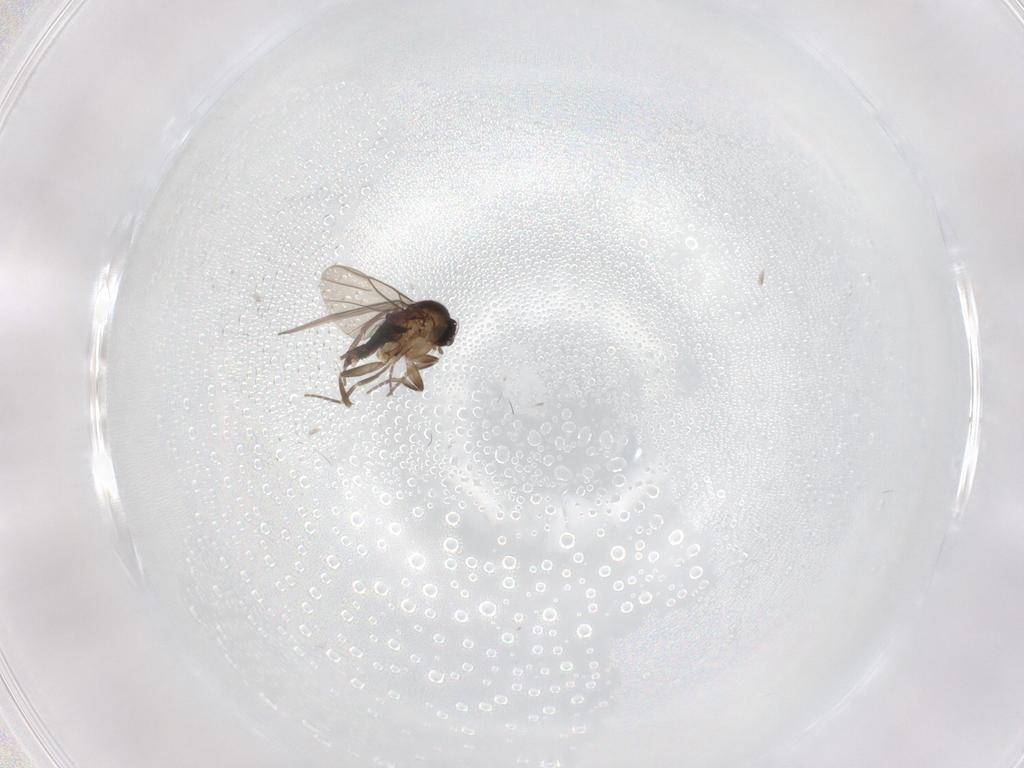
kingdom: Animalia
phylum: Arthropoda
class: Insecta
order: Diptera
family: Phoridae
